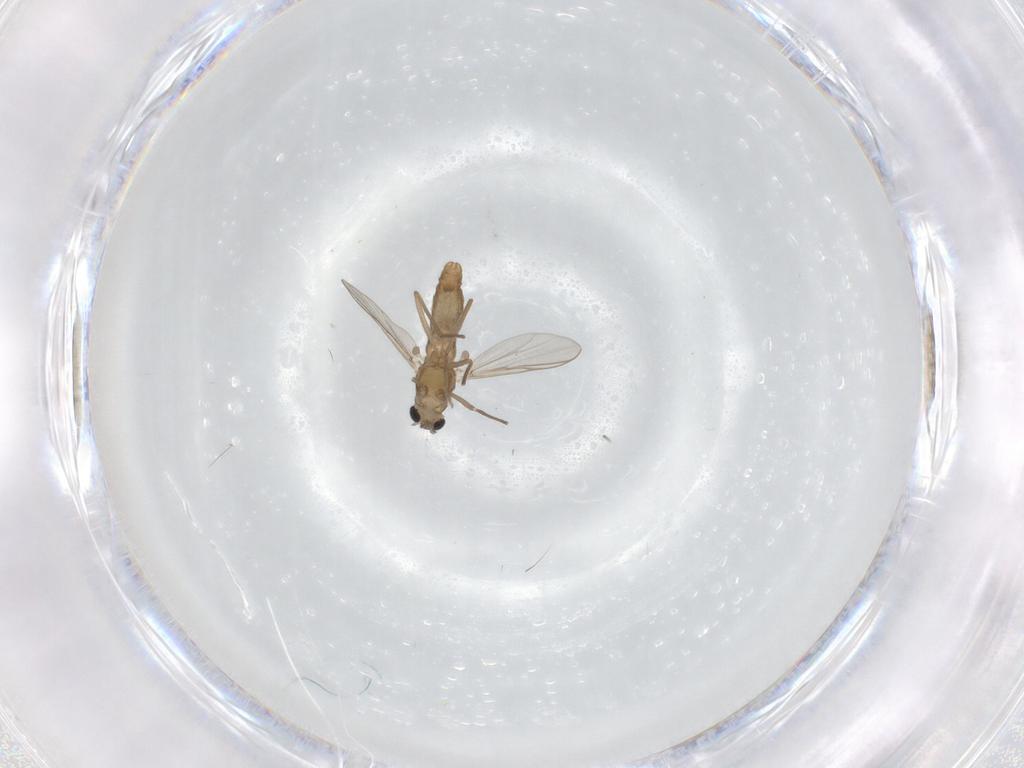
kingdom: Animalia
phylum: Arthropoda
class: Insecta
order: Diptera
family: Chironomidae
